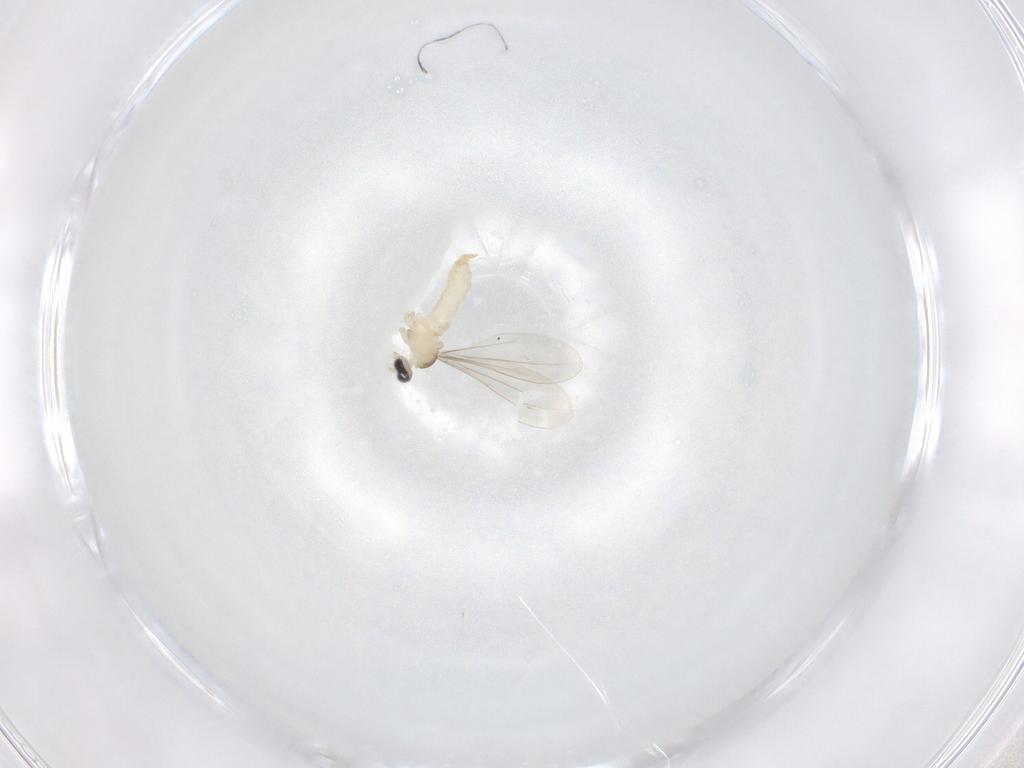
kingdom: Animalia
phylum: Arthropoda
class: Insecta
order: Diptera
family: Cecidomyiidae
